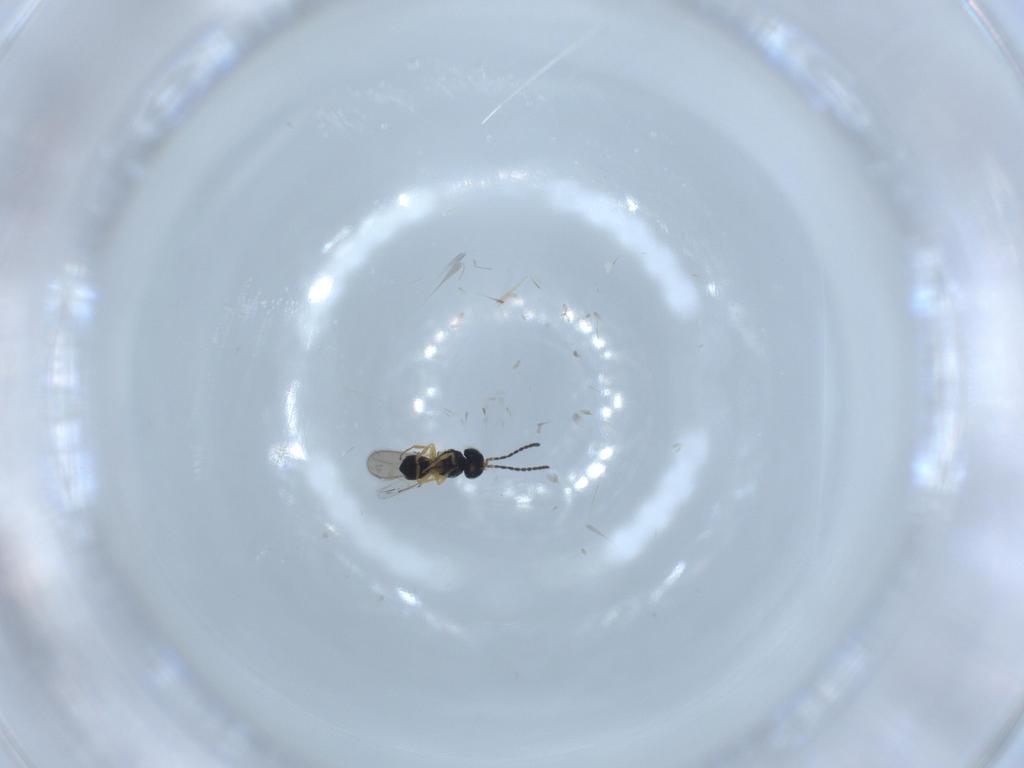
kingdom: Animalia
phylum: Arthropoda
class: Insecta
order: Hymenoptera
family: Scelionidae
